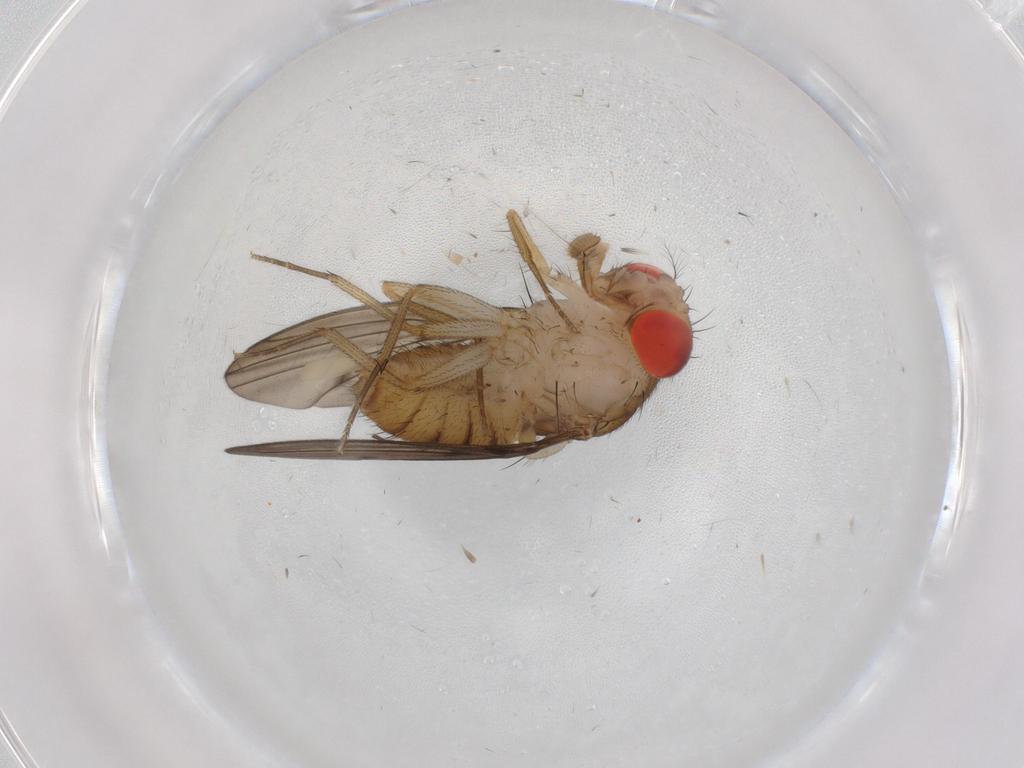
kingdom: Animalia
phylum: Arthropoda
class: Insecta
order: Diptera
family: Drosophilidae
